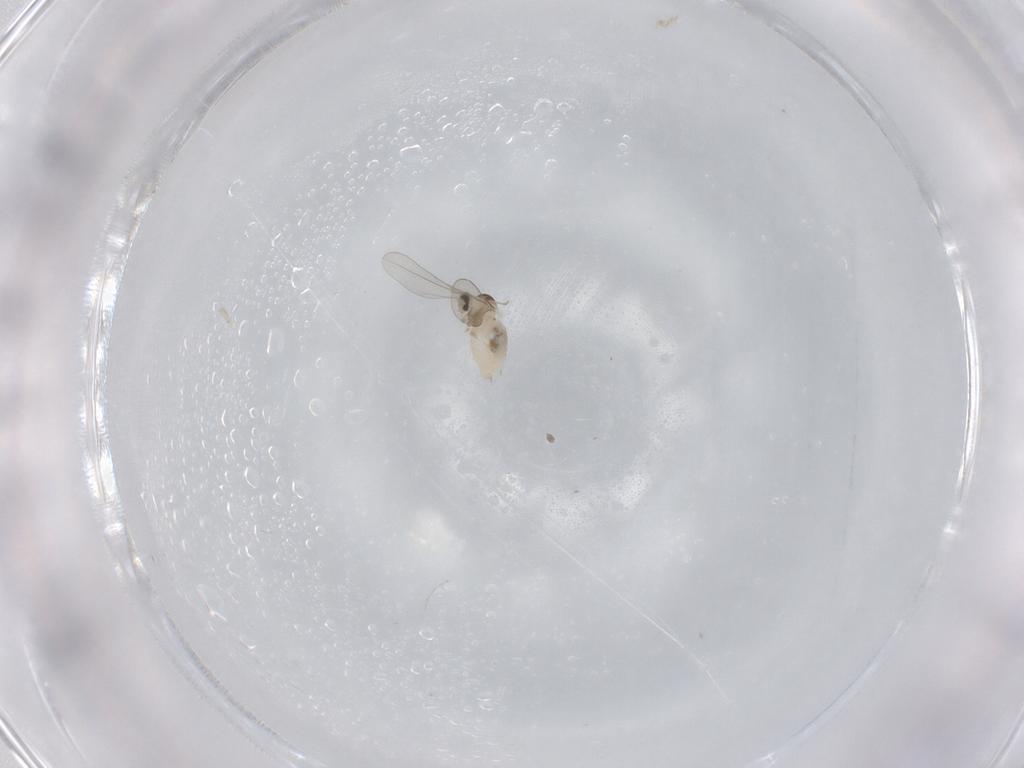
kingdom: Animalia
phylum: Arthropoda
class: Insecta
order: Diptera
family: Cecidomyiidae
